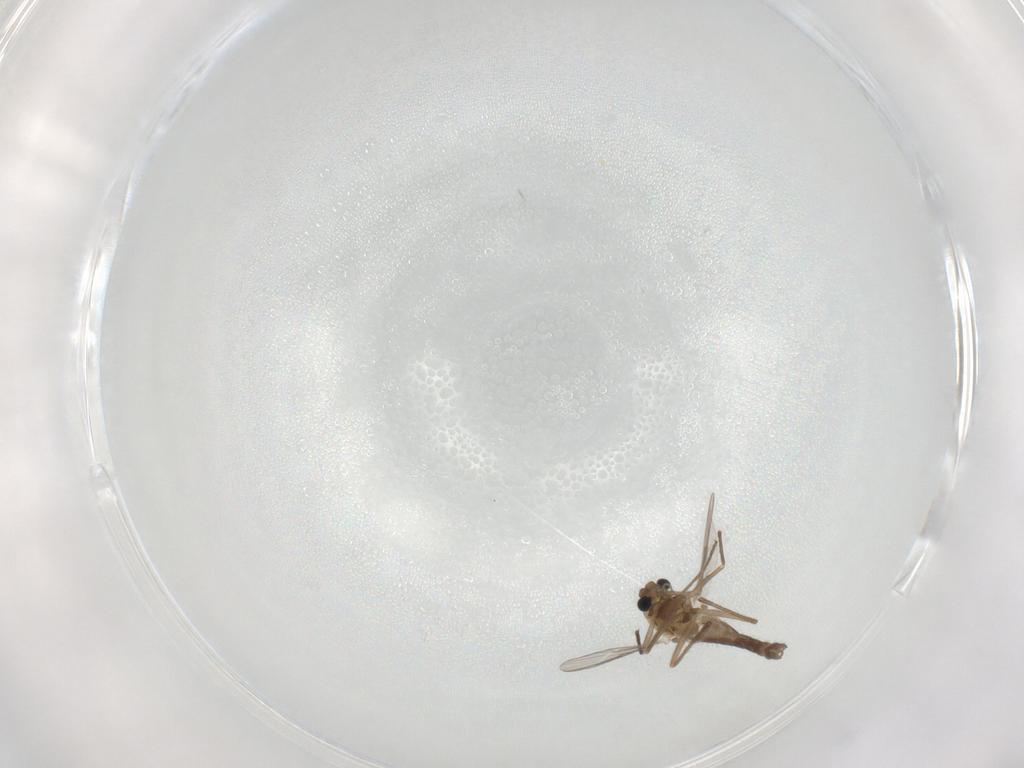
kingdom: Animalia
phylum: Arthropoda
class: Insecta
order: Diptera
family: Chironomidae
